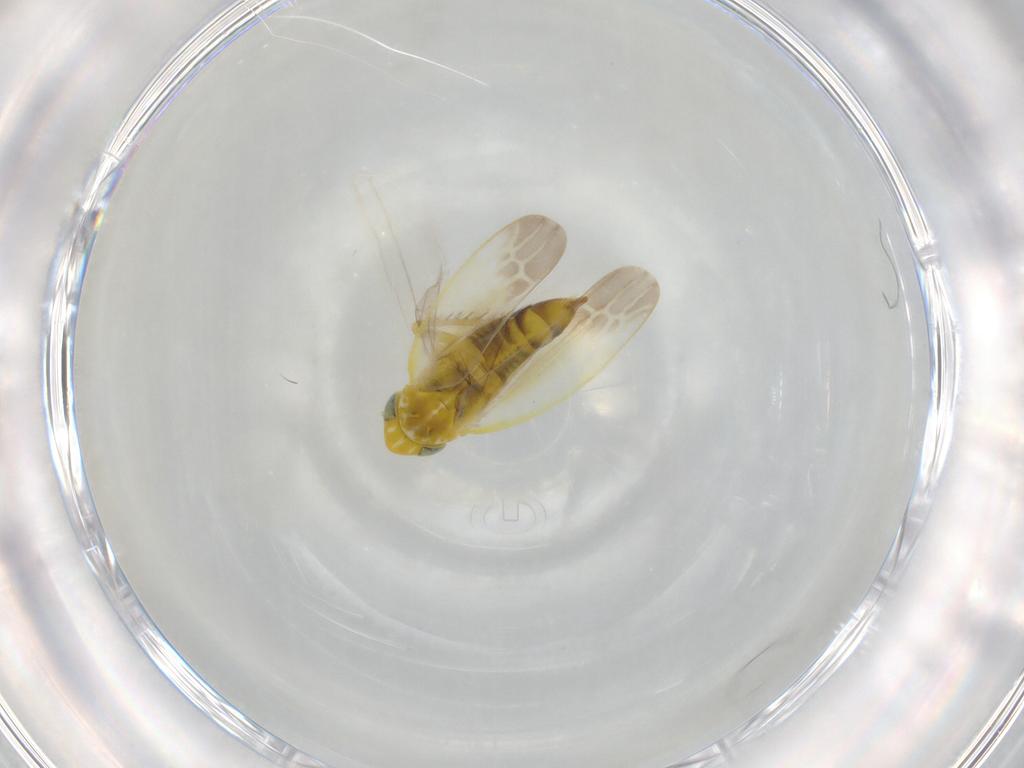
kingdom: Animalia
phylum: Arthropoda
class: Insecta
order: Hemiptera
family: Cicadellidae
